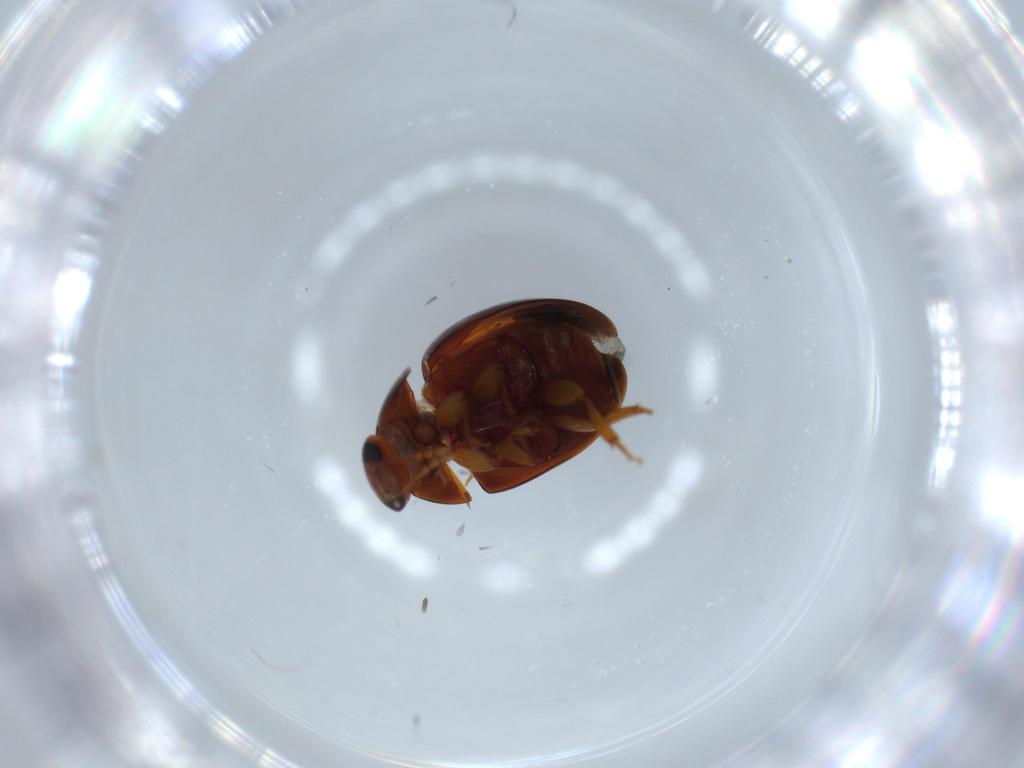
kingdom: Animalia
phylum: Arthropoda
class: Insecta
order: Coleoptera
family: Phalacridae
